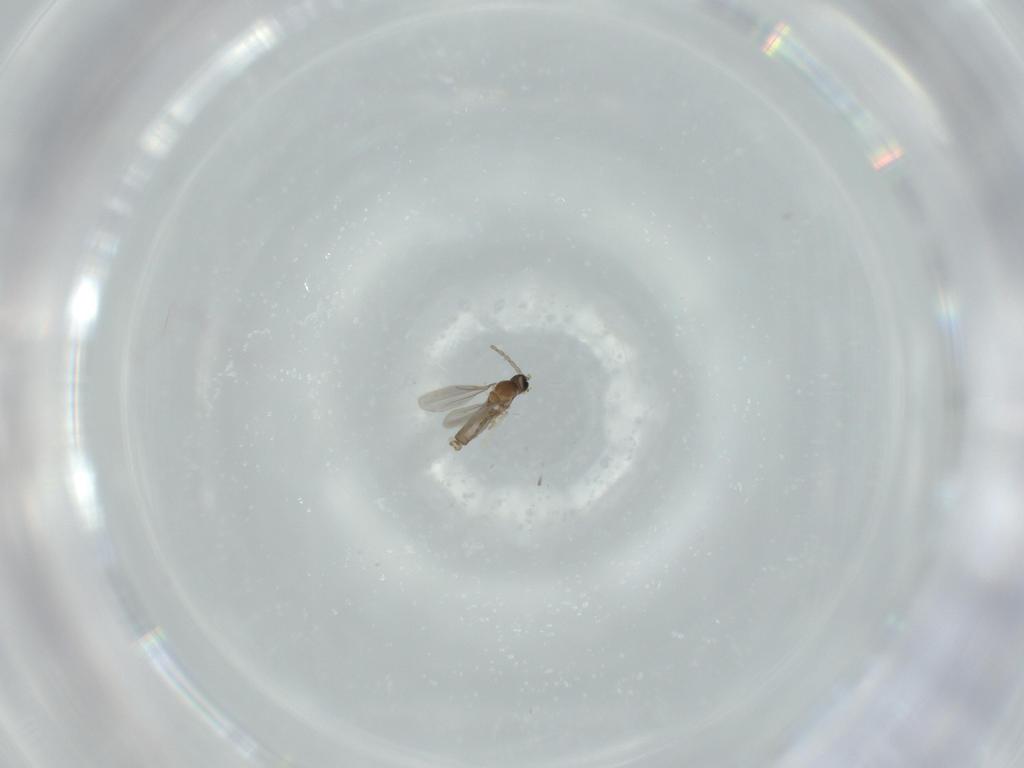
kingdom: Animalia
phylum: Arthropoda
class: Insecta
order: Diptera
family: Cecidomyiidae
